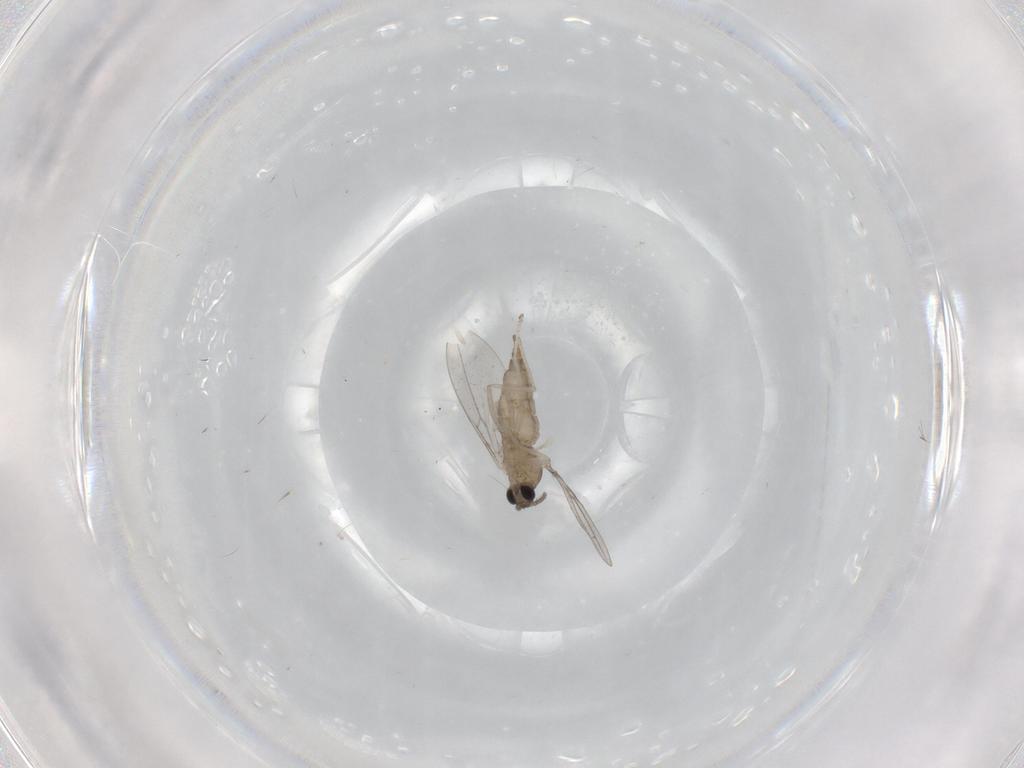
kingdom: Animalia
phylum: Arthropoda
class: Insecta
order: Diptera
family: Cecidomyiidae
